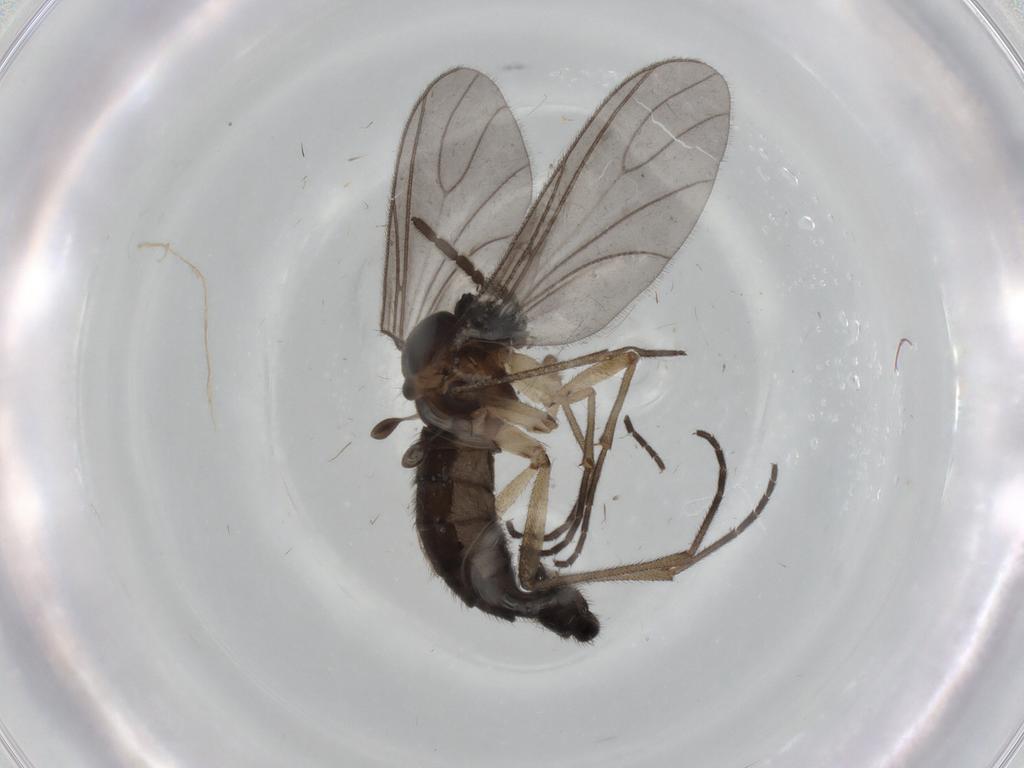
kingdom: Animalia
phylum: Arthropoda
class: Insecta
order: Diptera
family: Sciaridae
